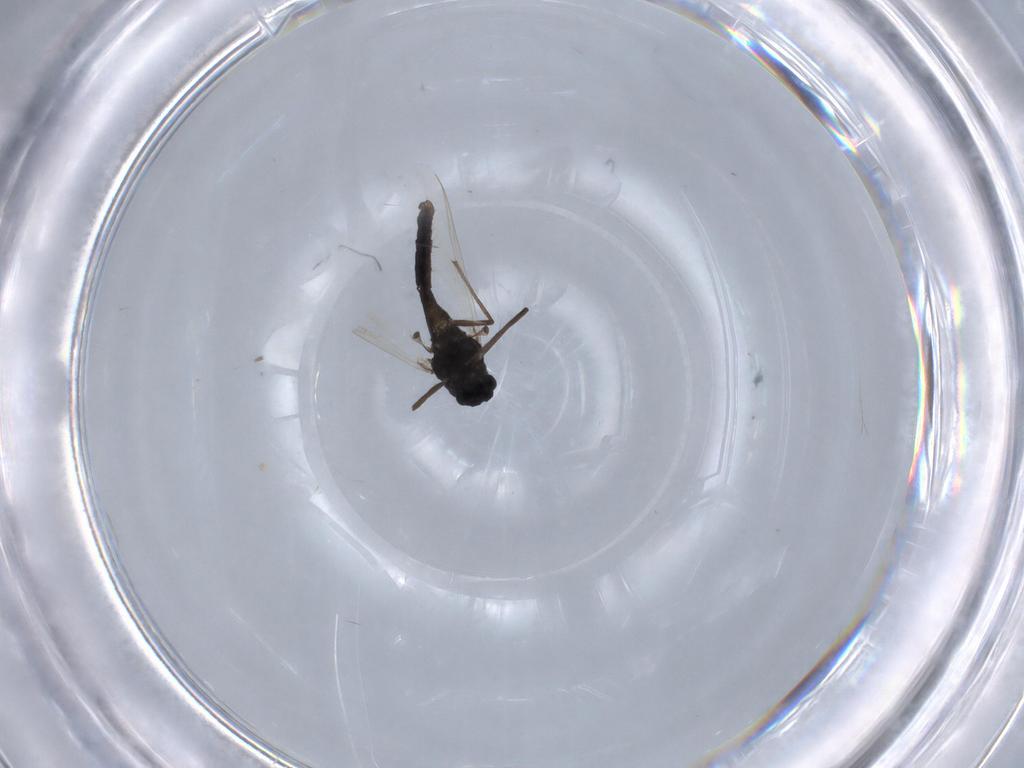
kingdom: Animalia
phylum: Arthropoda
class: Insecta
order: Diptera
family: Chironomidae
